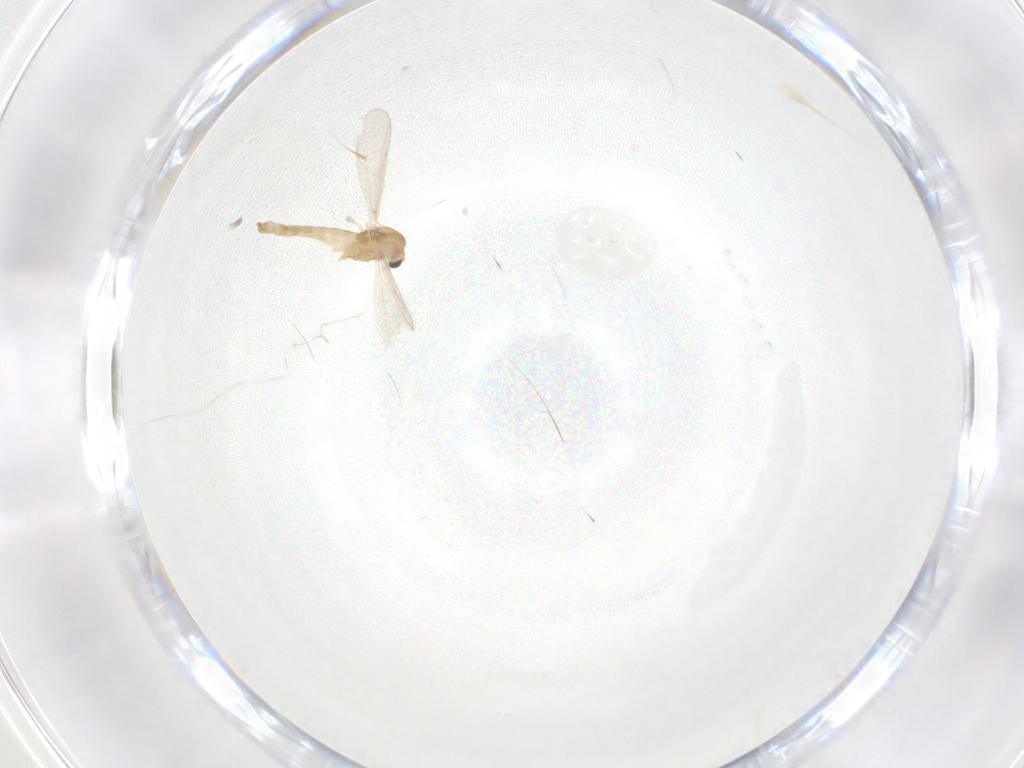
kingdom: Animalia
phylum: Arthropoda
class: Insecta
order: Diptera
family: Chironomidae
